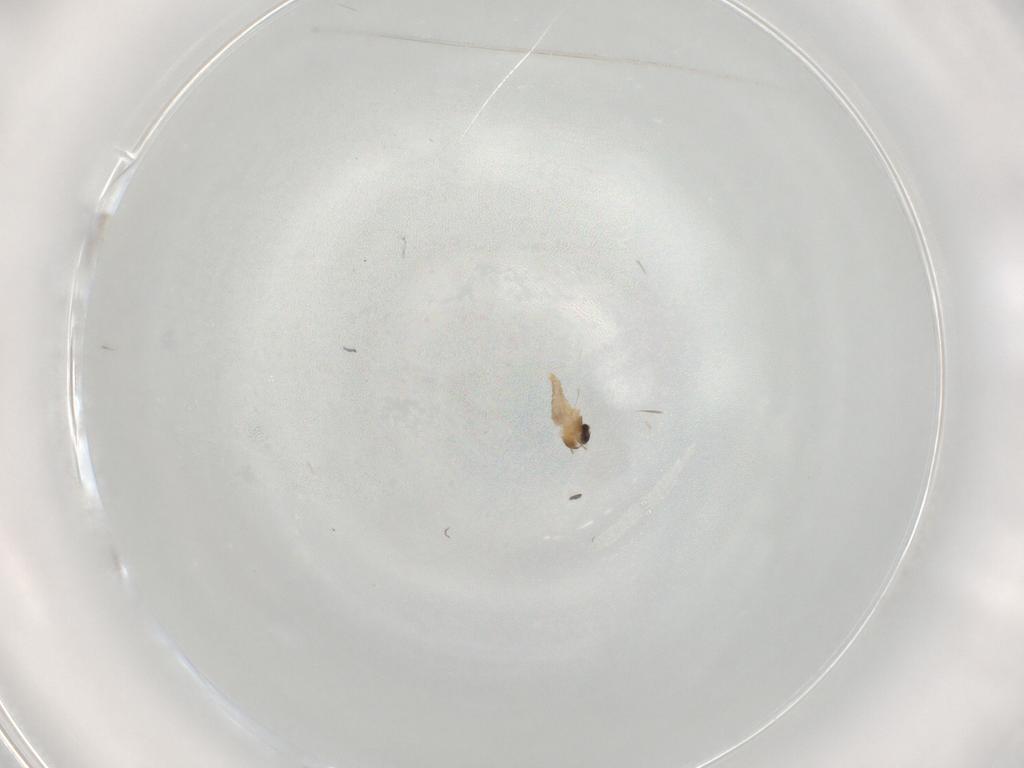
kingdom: Animalia
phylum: Arthropoda
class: Insecta
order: Diptera
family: Cecidomyiidae
